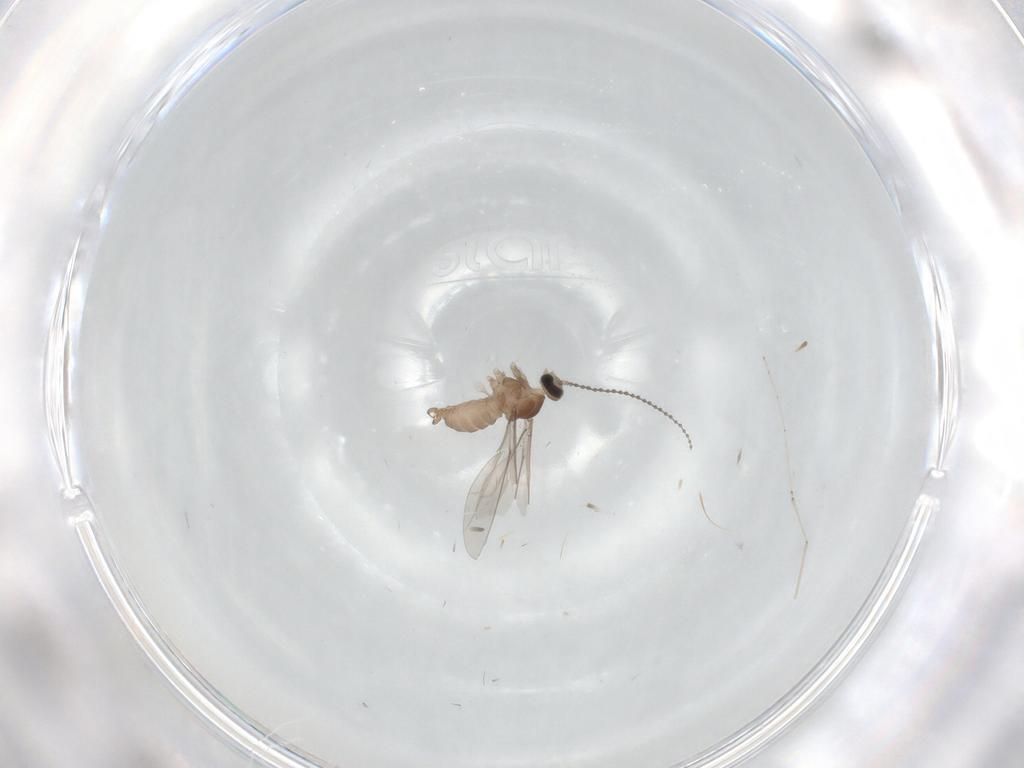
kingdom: Animalia
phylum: Arthropoda
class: Insecta
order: Diptera
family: Cecidomyiidae
